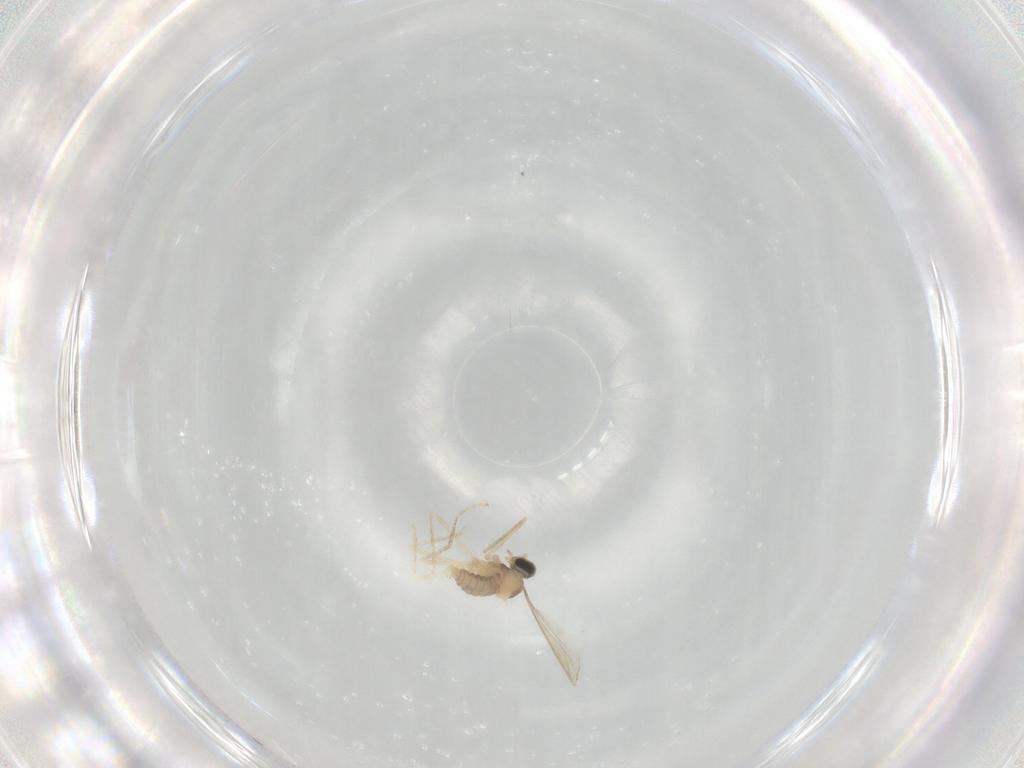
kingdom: Animalia
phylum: Arthropoda
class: Insecta
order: Diptera
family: Cecidomyiidae
